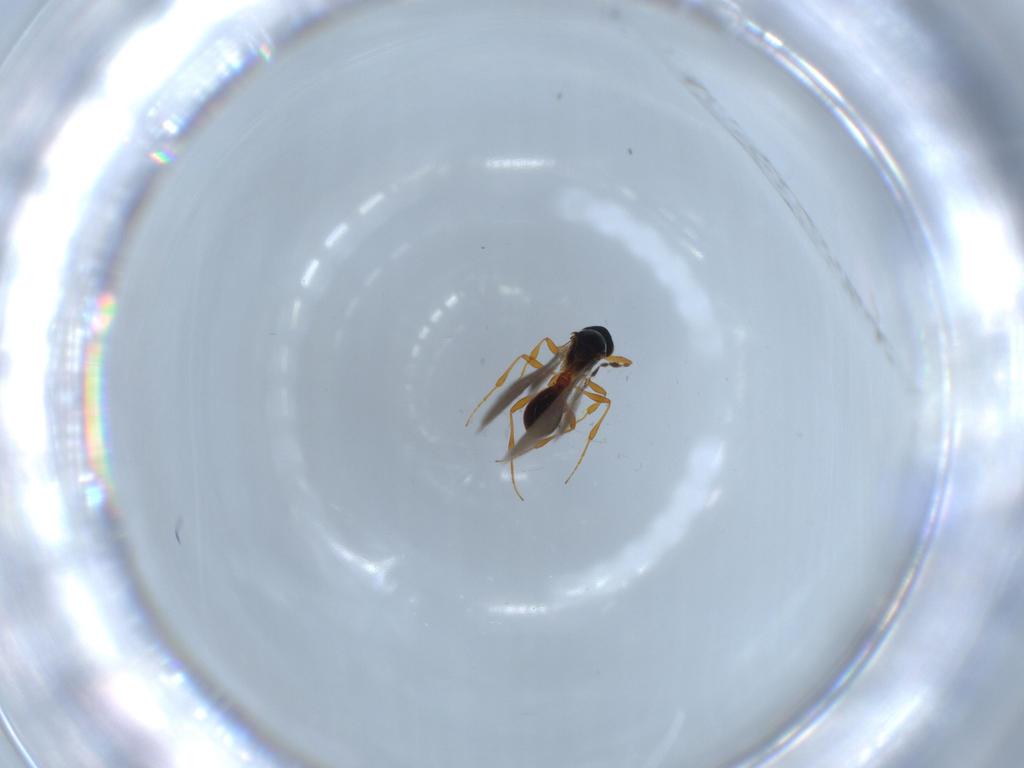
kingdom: Animalia
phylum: Arthropoda
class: Insecta
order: Hymenoptera
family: Platygastridae
